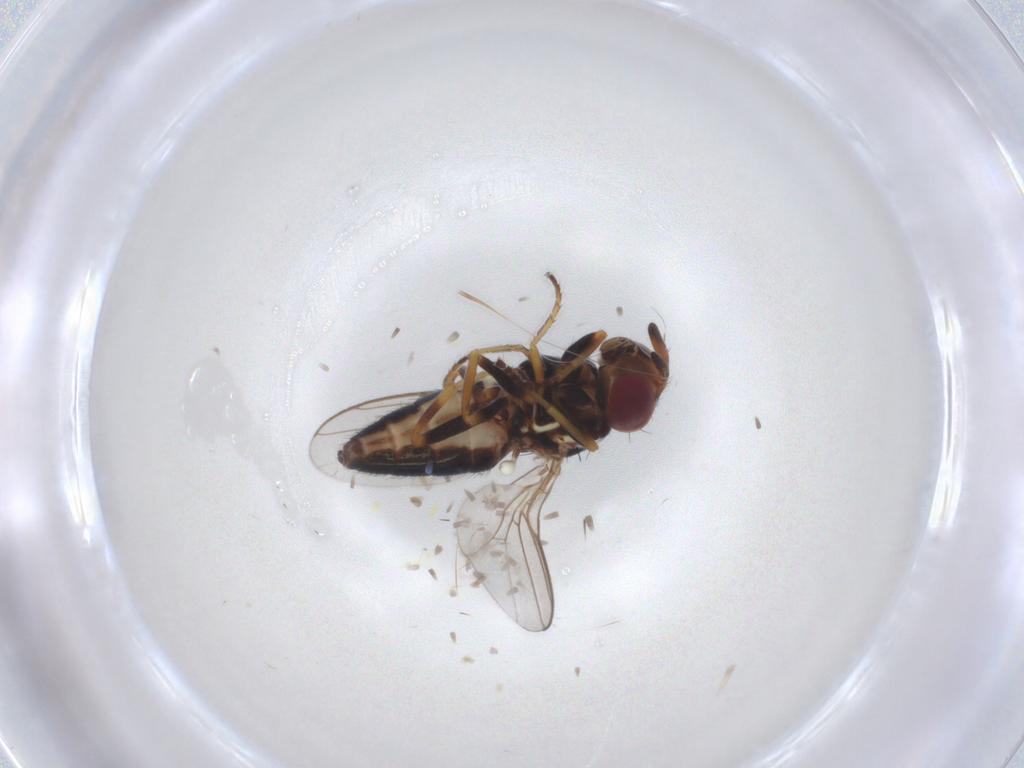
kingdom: Animalia
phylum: Arthropoda
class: Insecta
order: Diptera
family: Chloropidae
